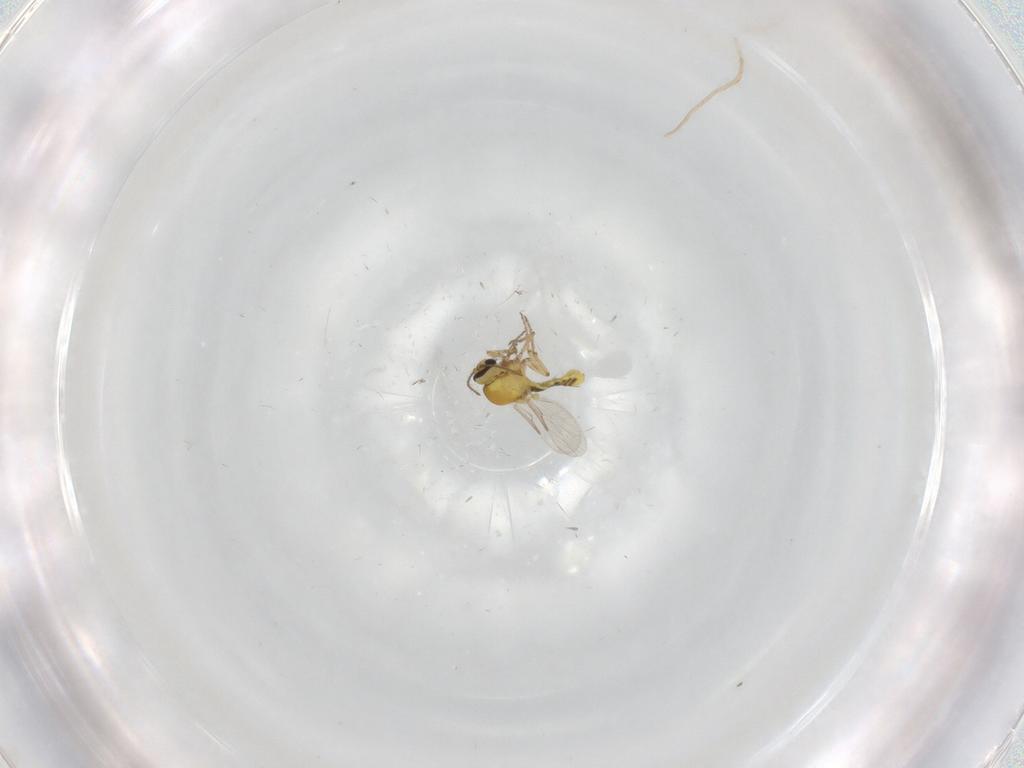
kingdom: Animalia
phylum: Arthropoda
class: Insecta
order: Diptera
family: Ceratopogonidae
